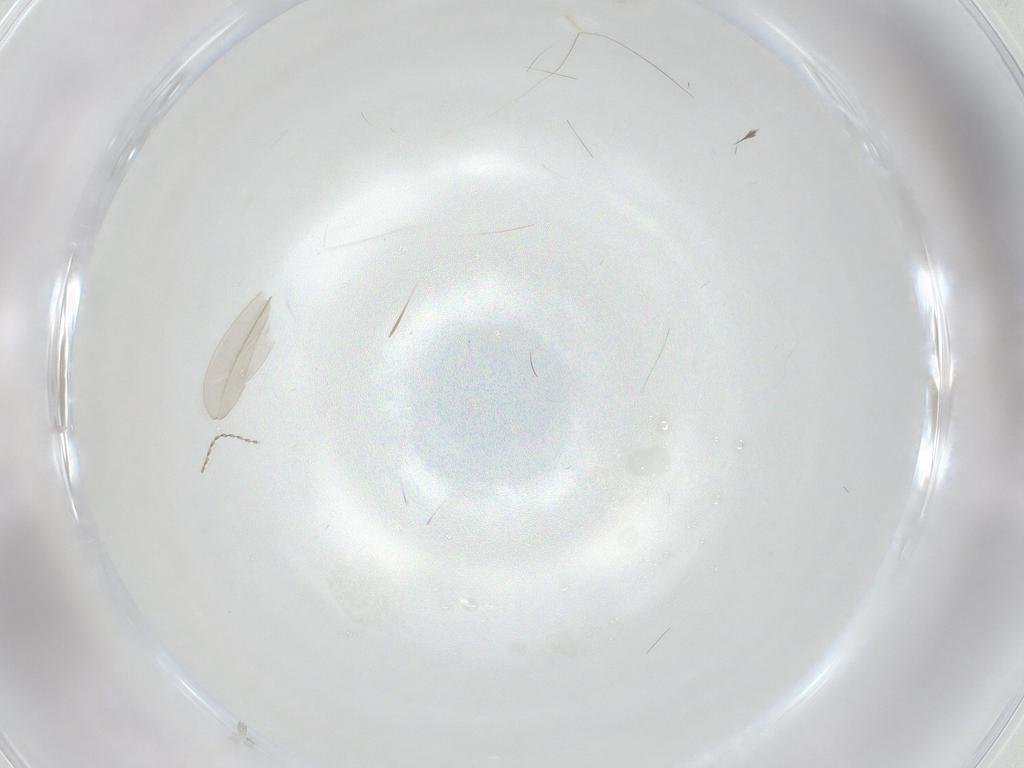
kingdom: Animalia
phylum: Arthropoda
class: Insecta
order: Diptera
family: Cecidomyiidae
